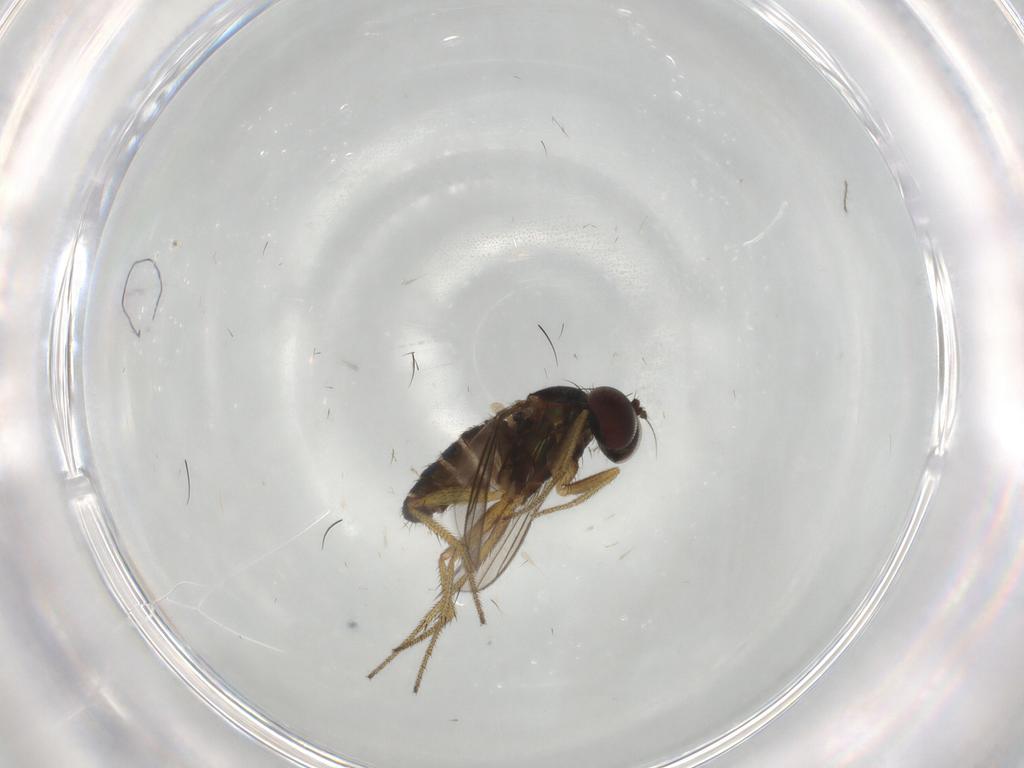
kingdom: Animalia
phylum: Arthropoda
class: Insecta
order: Diptera
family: Dolichopodidae
